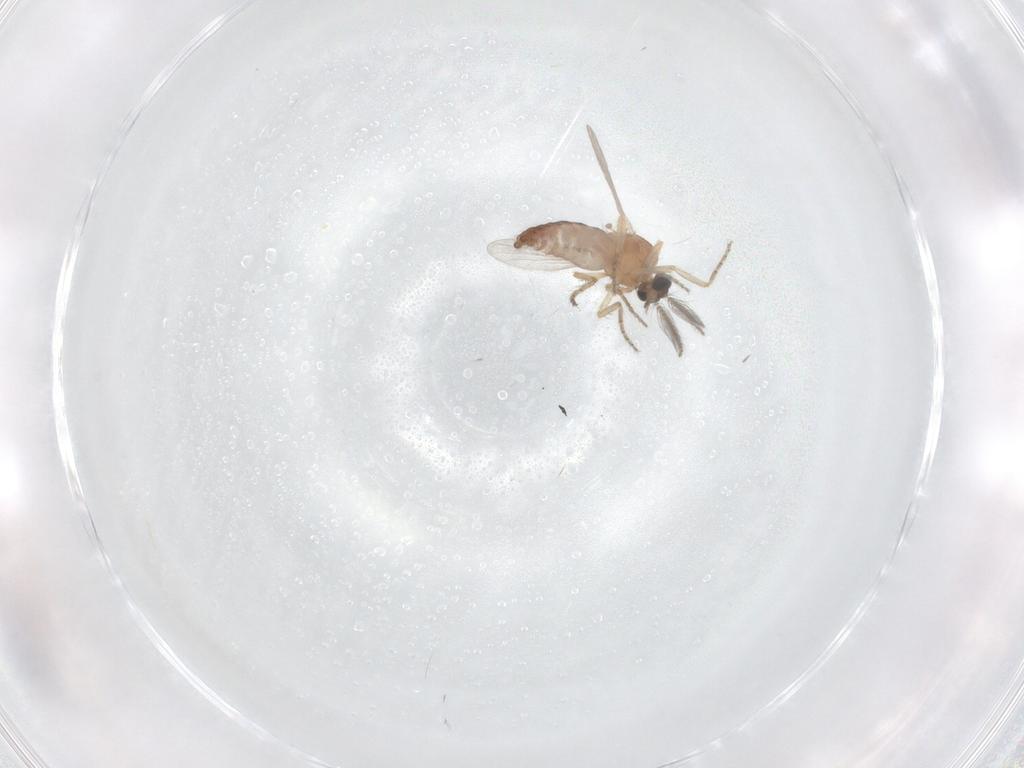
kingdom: Animalia
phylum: Arthropoda
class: Insecta
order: Diptera
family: Ceratopogonidae
